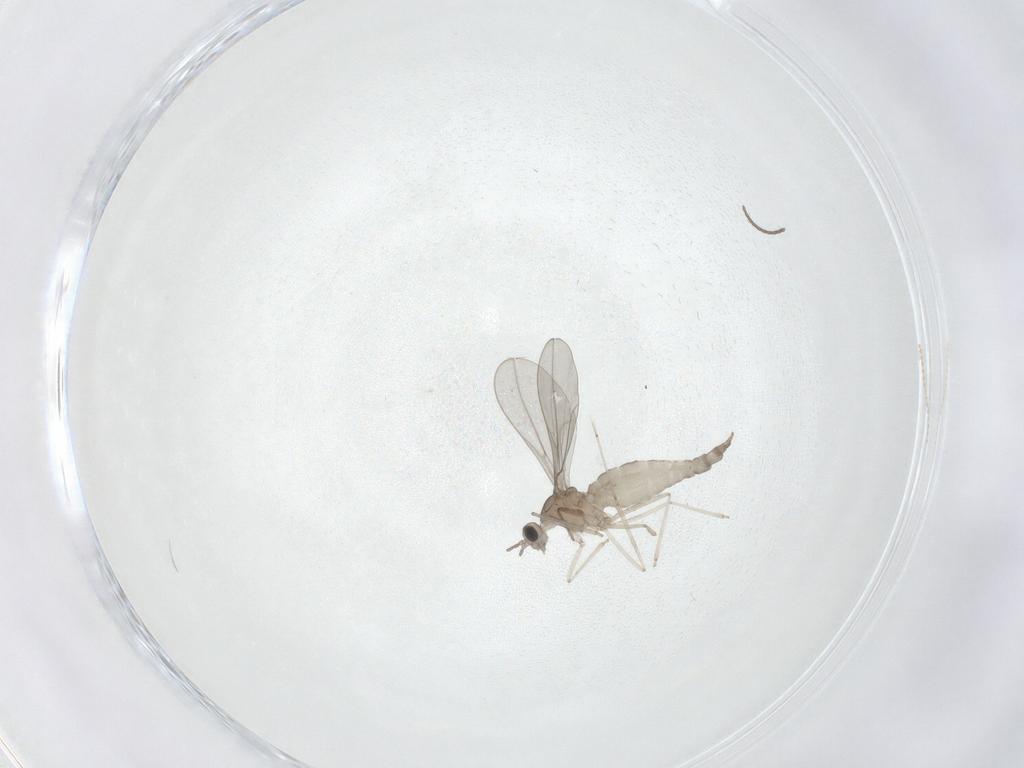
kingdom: Animalia
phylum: Arthropoda
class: Insecta
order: Diptera
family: Cecidomyiidae
